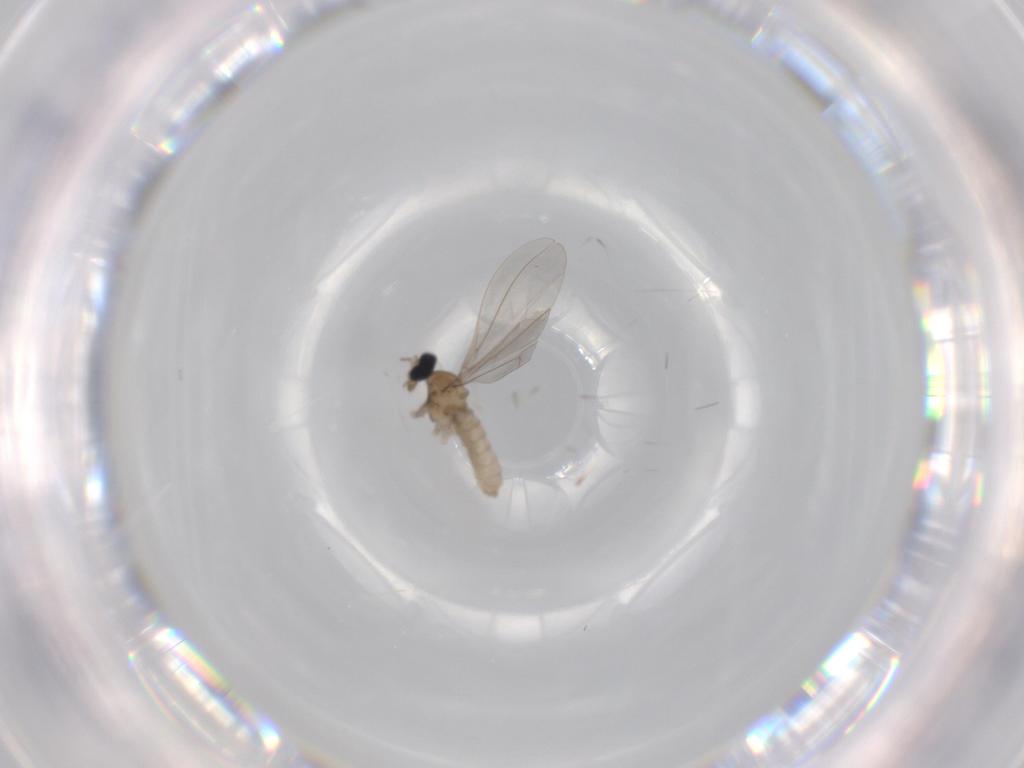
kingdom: Animalia
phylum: Arthropoda
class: Insecta
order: Diptera
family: Cecidomyiidae
